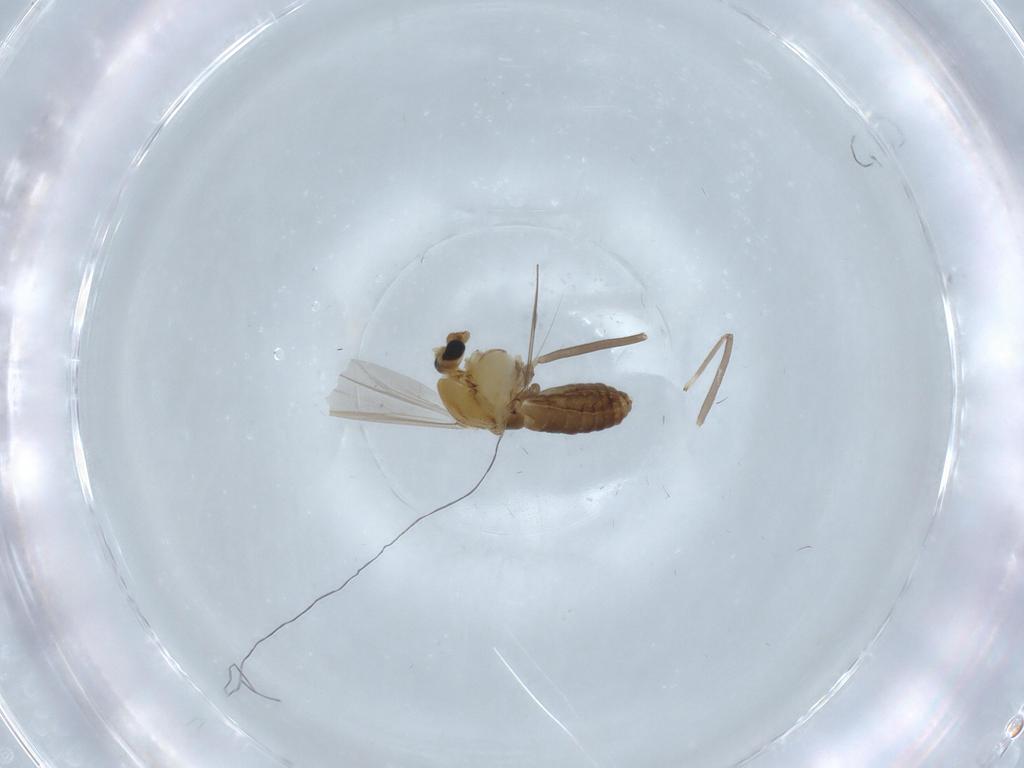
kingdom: Animalia
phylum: Arthropoda
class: Insecta
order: Diptera
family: Chironomidae
